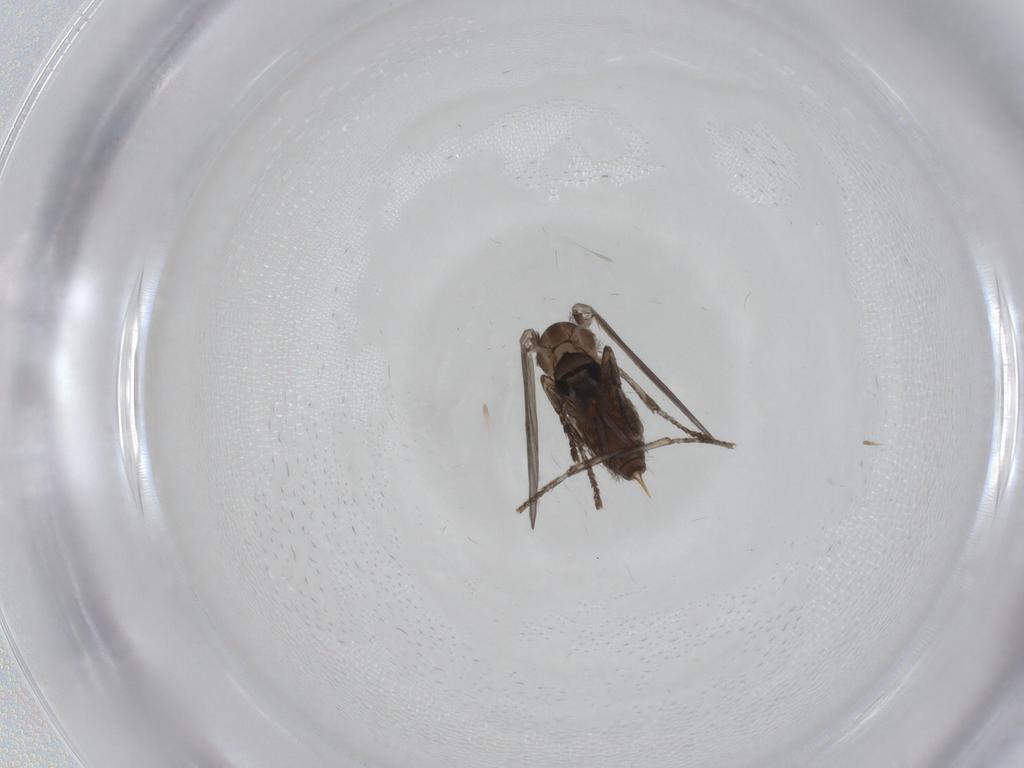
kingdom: Animalia
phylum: Arthropoda
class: Insecta
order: Diptera
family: Psychodidae
